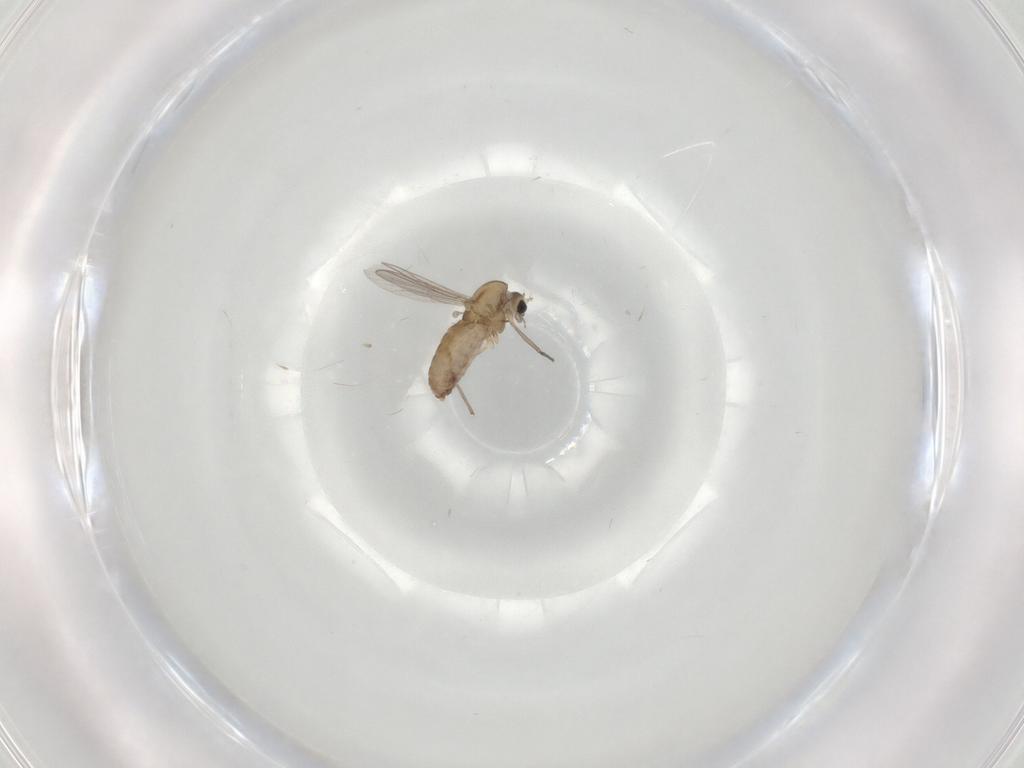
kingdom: Animalia
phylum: Arthropoda
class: Insecta
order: Diptera
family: Chironomidae
